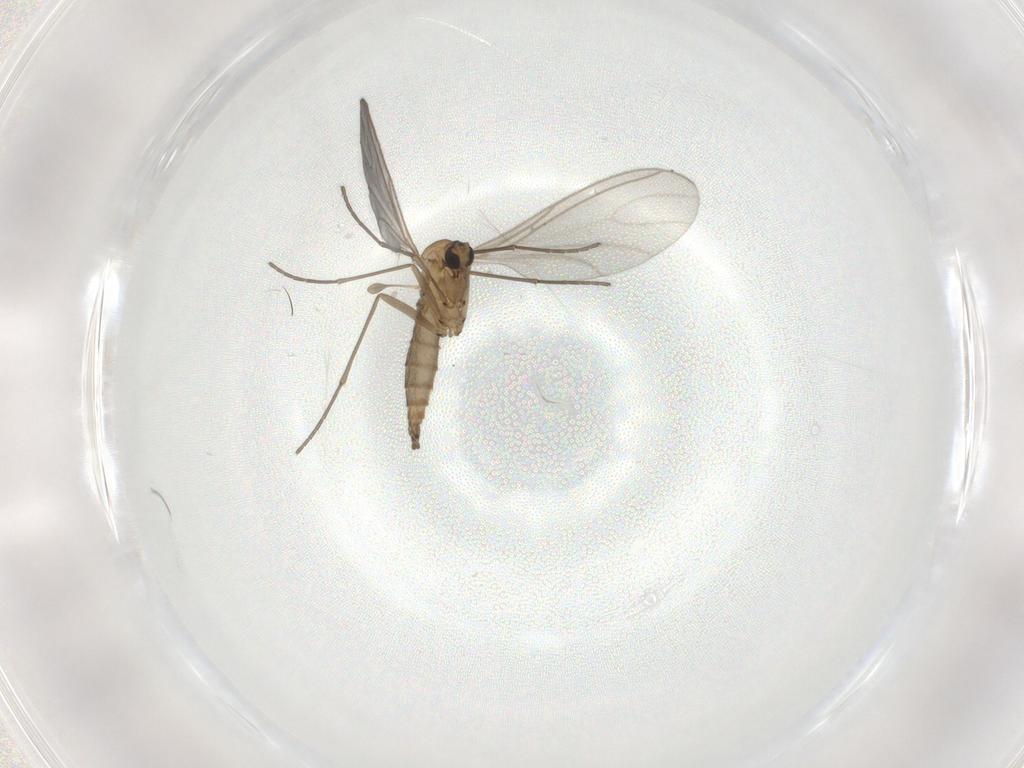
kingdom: Animalia
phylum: Arthropoda
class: Insecta
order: Diptera
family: Sciaridae
